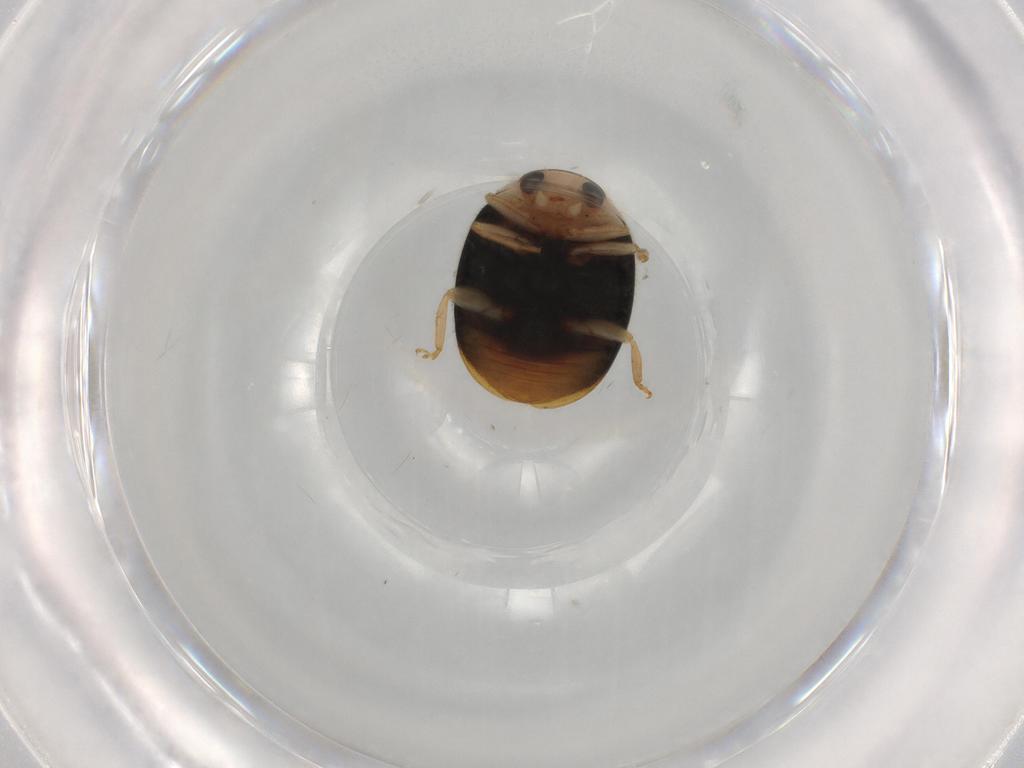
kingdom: Animalia
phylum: Arthropoda
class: Insecta
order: Coleoptera
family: Coccinellidae
